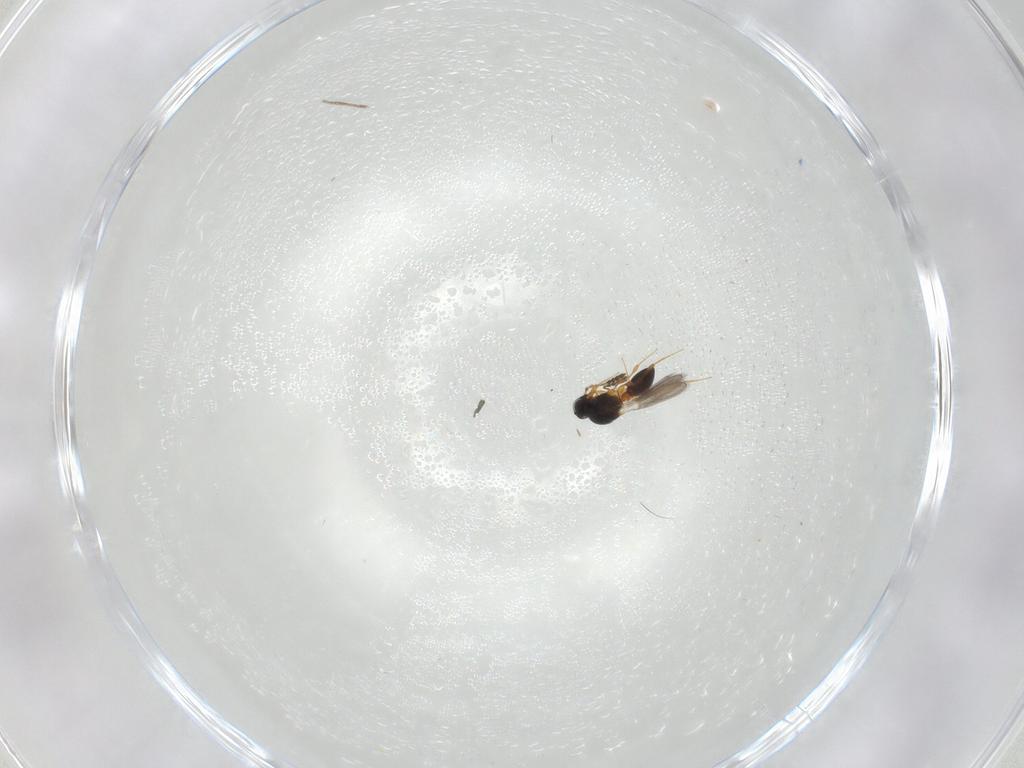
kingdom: Animalia
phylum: Arthropoda
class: Insecta
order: Hymenoptera
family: Platygastridae
